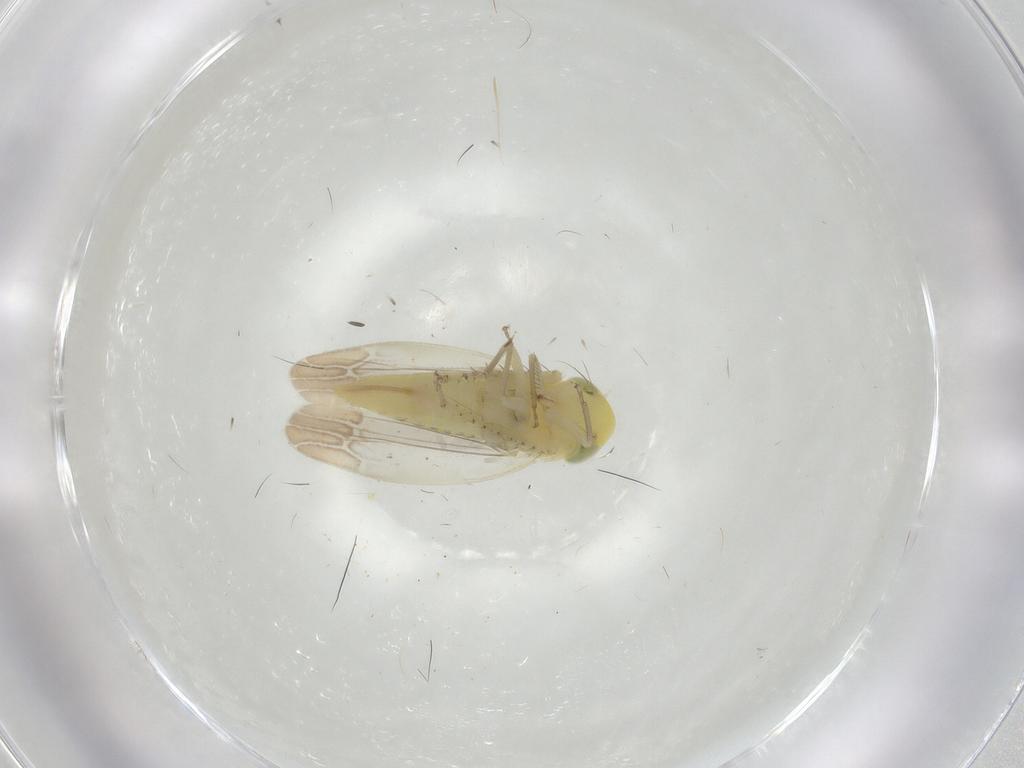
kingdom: Animalia
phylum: Arthropoda
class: Insecta
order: Hemiptera
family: Cicadellidae
